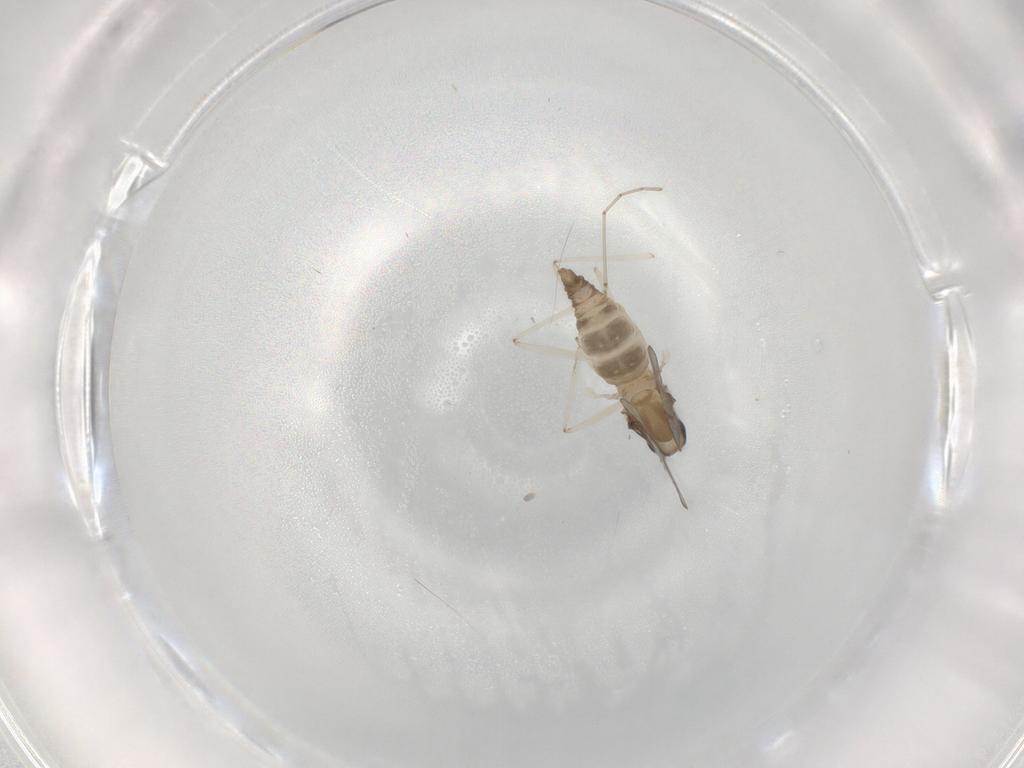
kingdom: Animalia
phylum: Arthropoda
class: Insecta
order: Diptera
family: Cecidomyiidae
